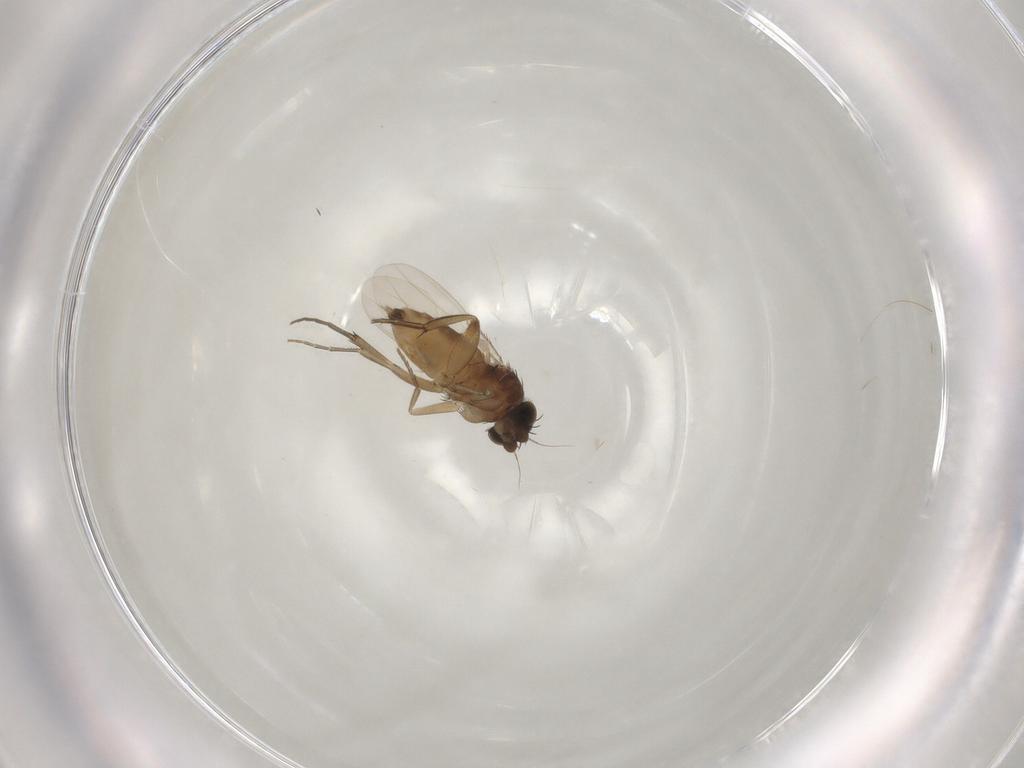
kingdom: Animalia
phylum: Arthropoda
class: Insecta
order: Diptera
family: Phoridae
